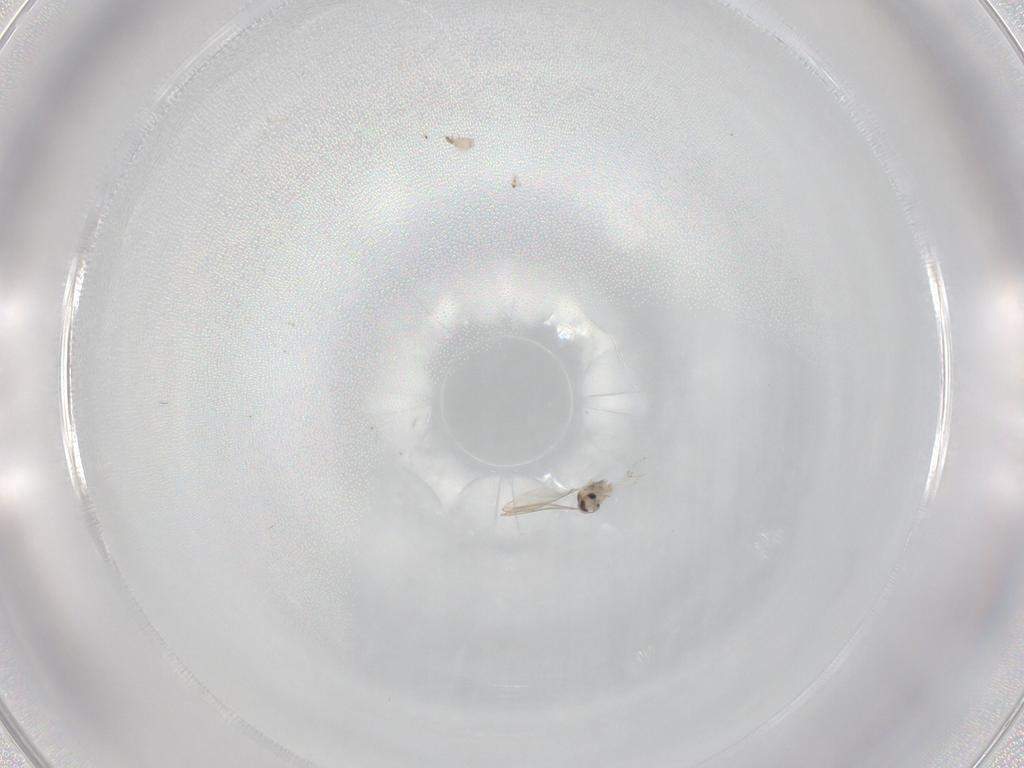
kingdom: Animalia
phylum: Arthropoda
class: Insecta
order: Diptera
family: Cecidomyiidae
